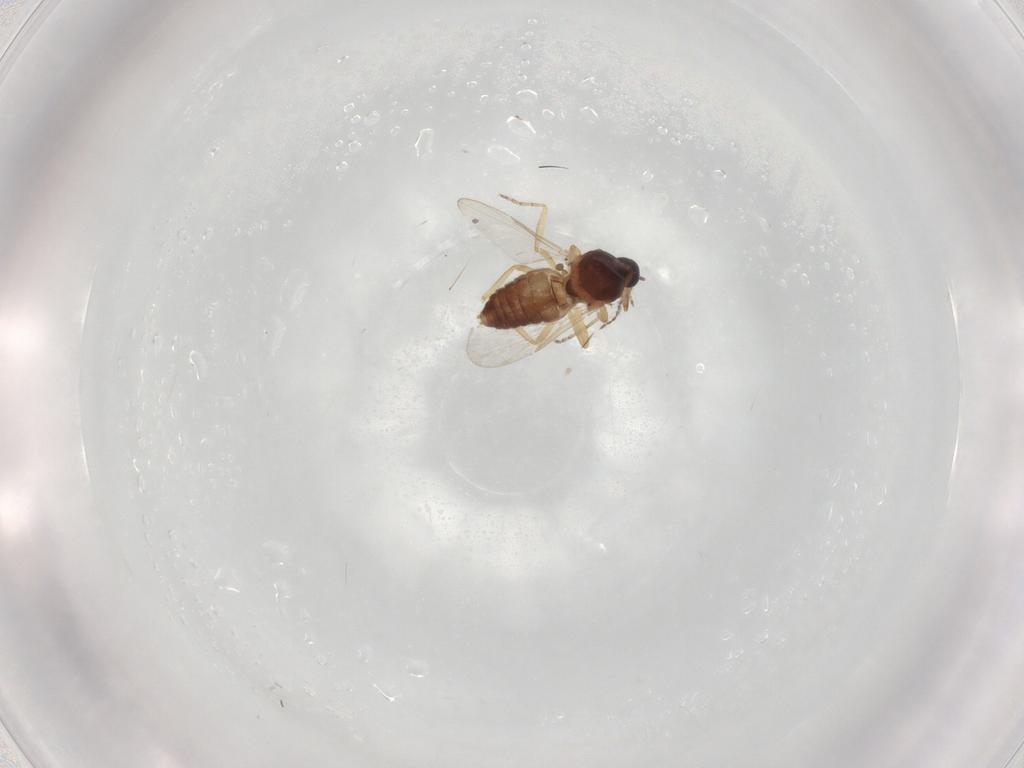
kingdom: Animalia
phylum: Arthropoda
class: Insecta
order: Diptera
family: Ceratopogonidae
